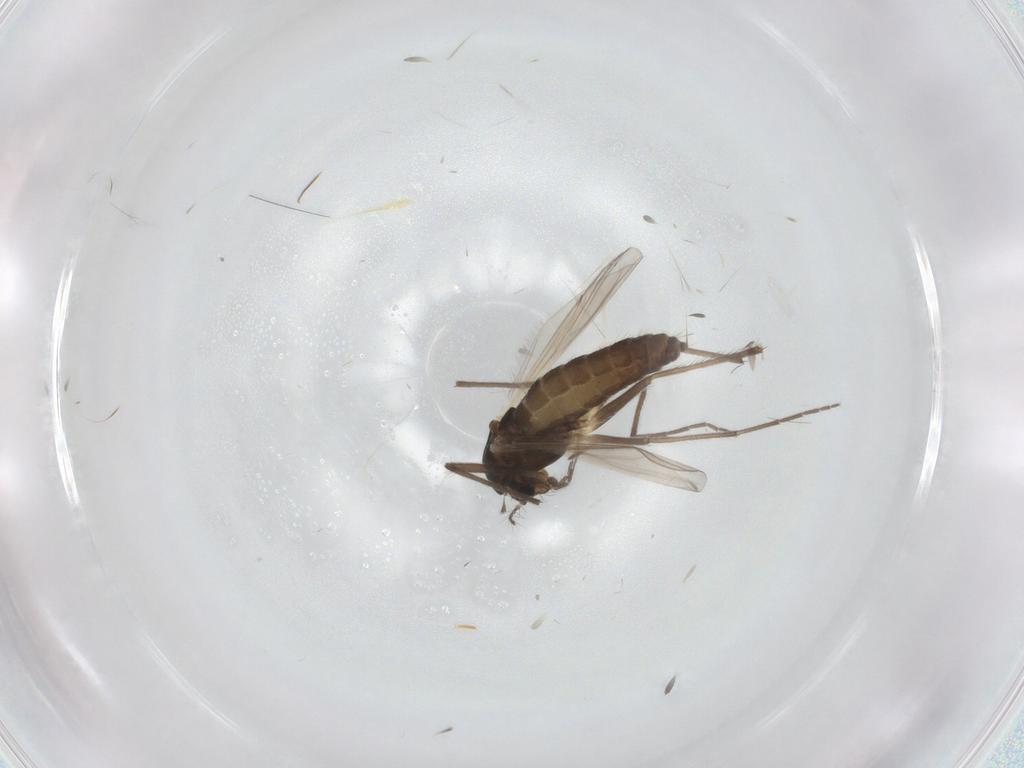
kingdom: Animalia
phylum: Arthropoda
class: Insecta
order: Diptera
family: Chironomidae
